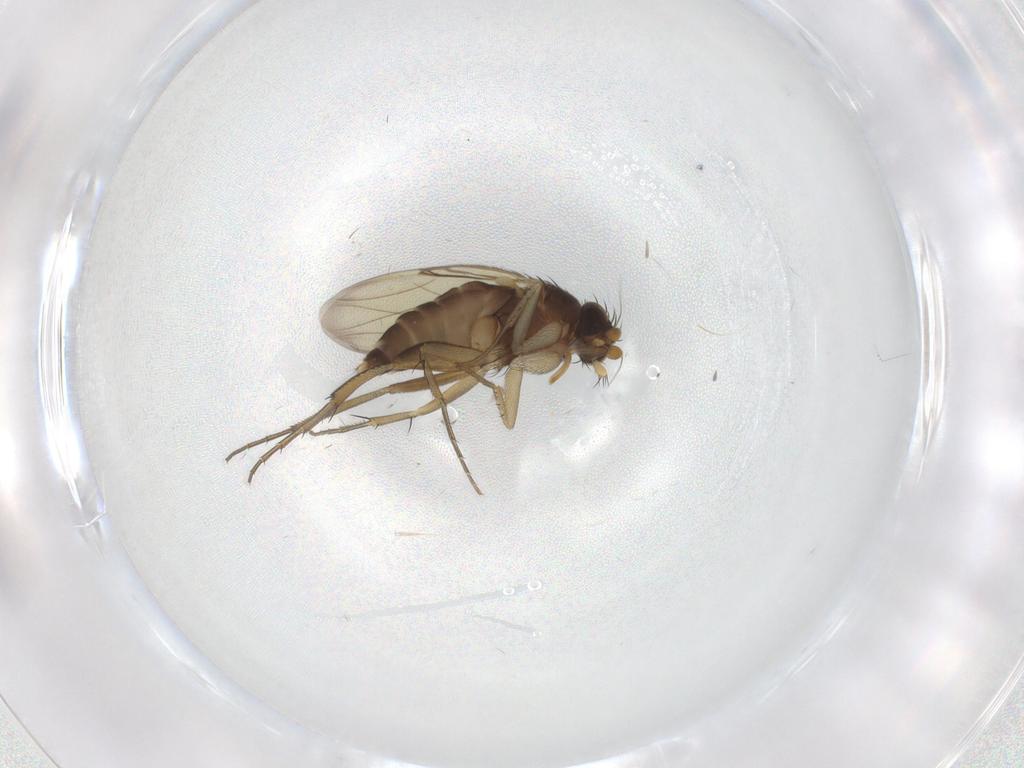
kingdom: Animalia
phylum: Arthropoda
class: Insecta
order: Diptera
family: Phoridae
